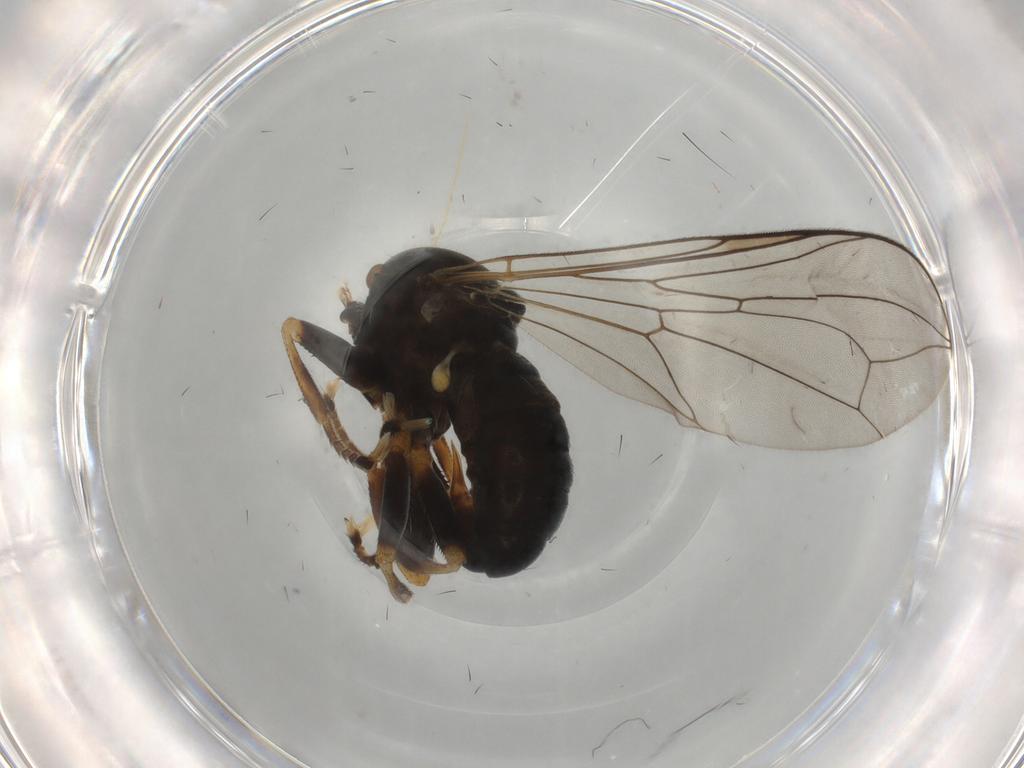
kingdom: Animalia
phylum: Arthropoda
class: Insecta
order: Diptera
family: Pipunculidae
